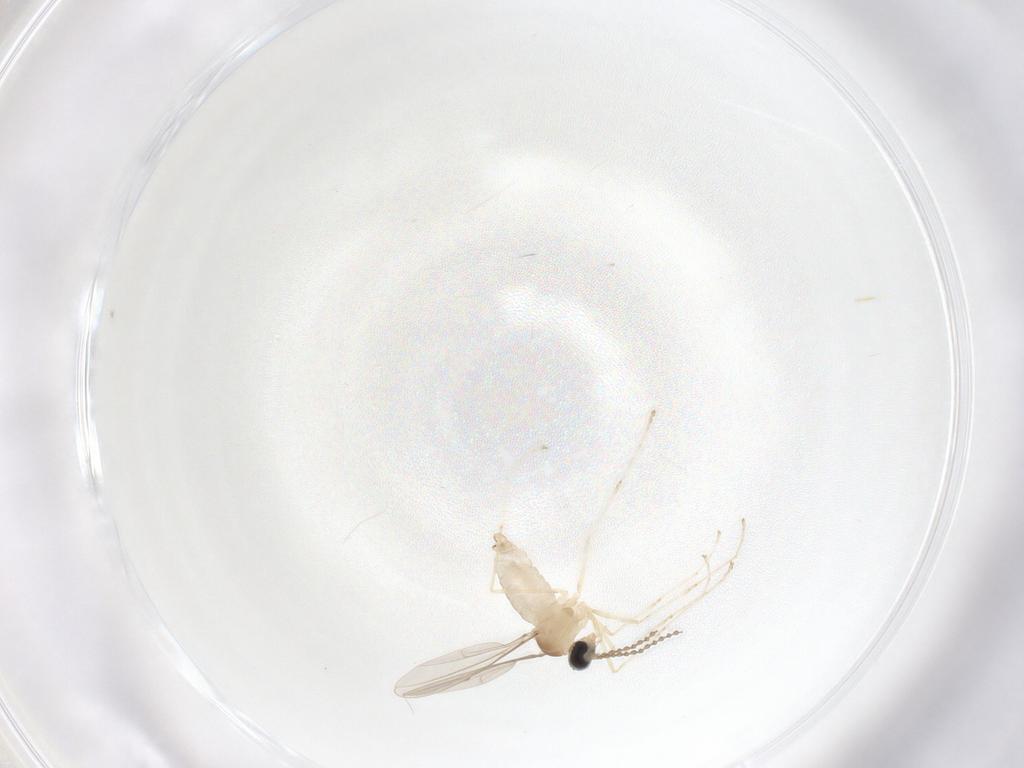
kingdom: Animalia
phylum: Arthropoda
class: Insecta
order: Diptera
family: Cecidomyiidae
